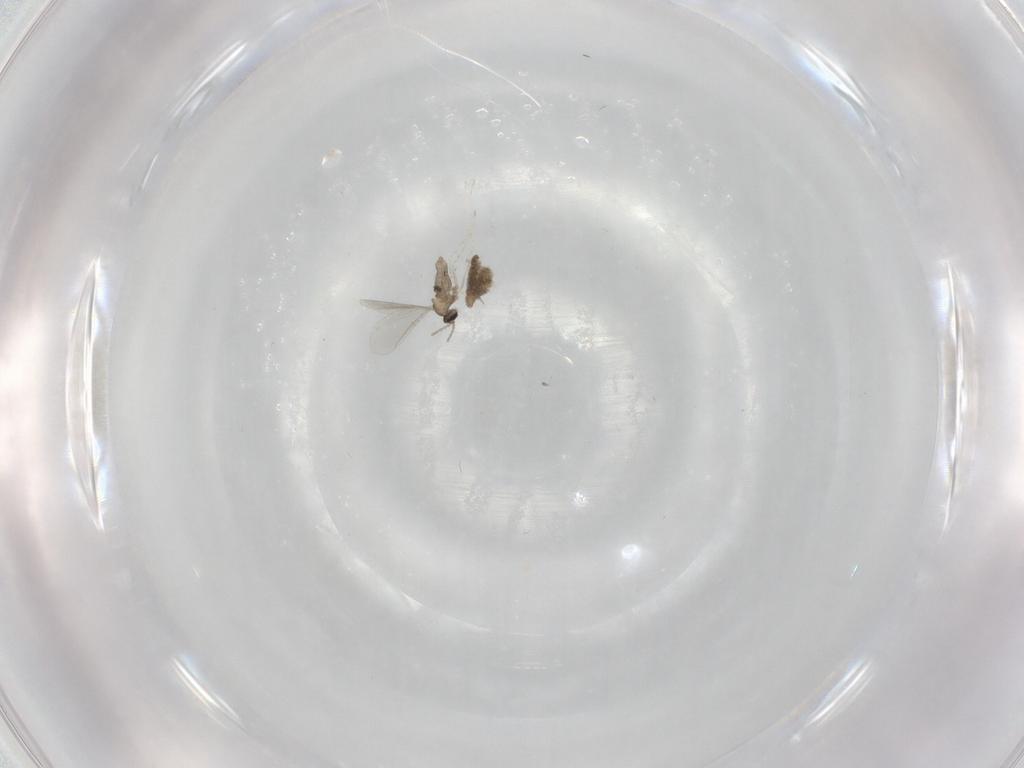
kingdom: Animalia
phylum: Arthropoda
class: Insecta
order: Diptera
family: Cecidomyiidae
